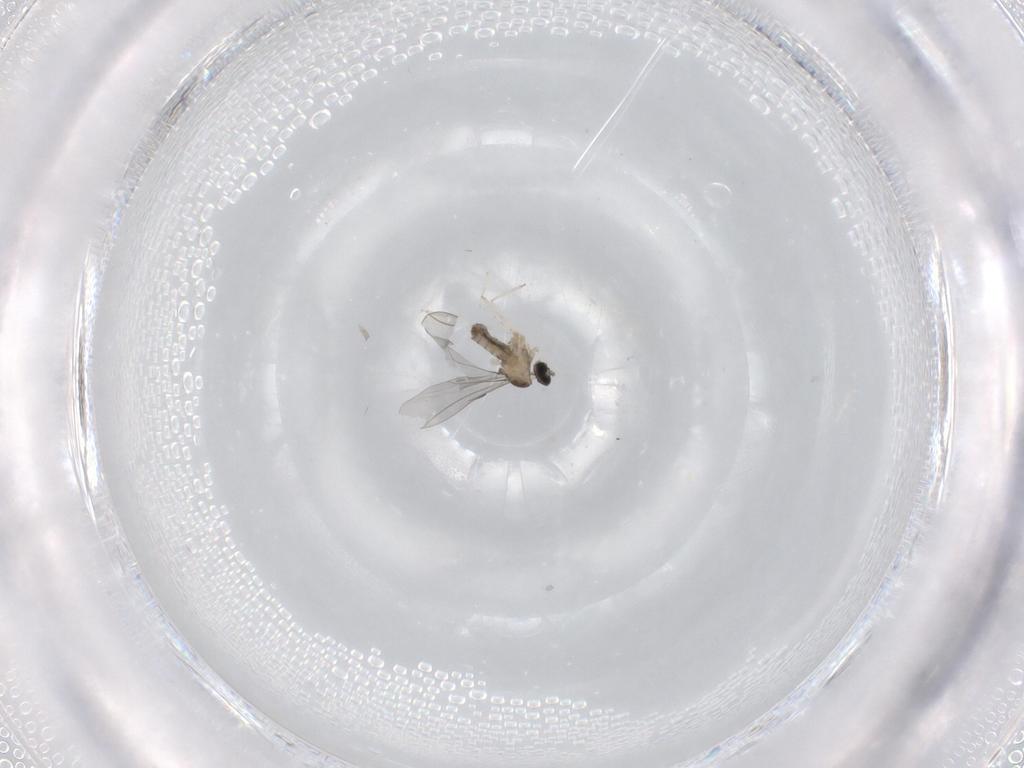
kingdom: Animalia
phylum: Arthropoda
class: Insecta
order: Diptera
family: Cecidomyiidae
